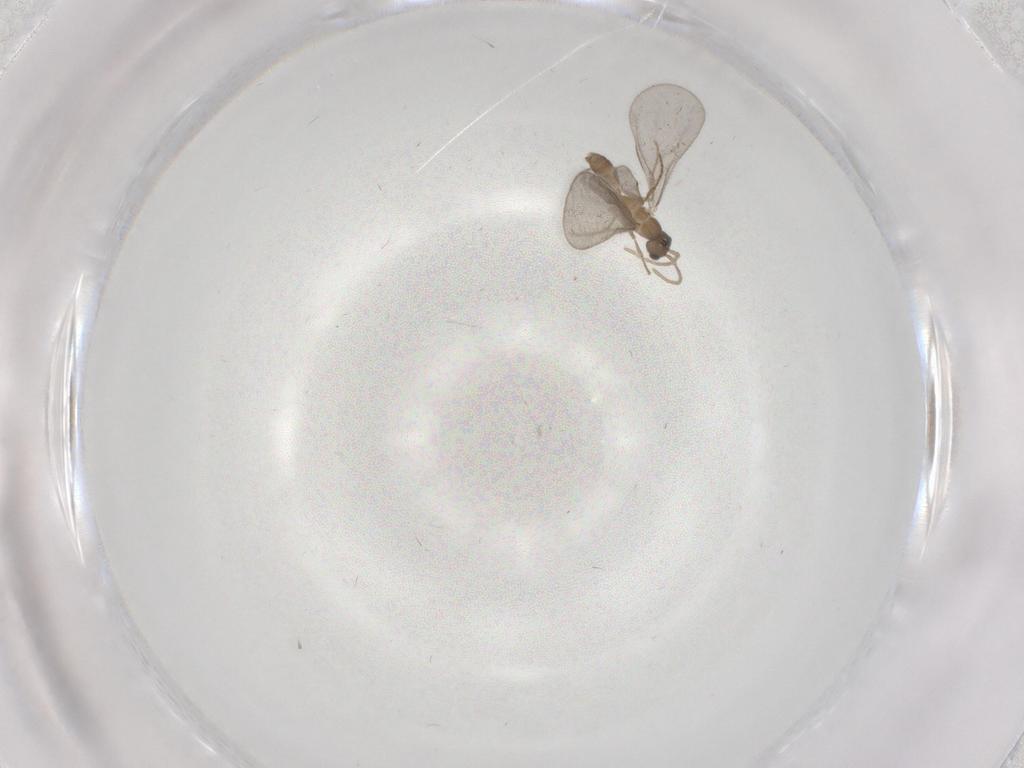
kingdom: Animalia
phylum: Arthropoda
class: Insecta
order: Hymenoptera
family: Formicidae
